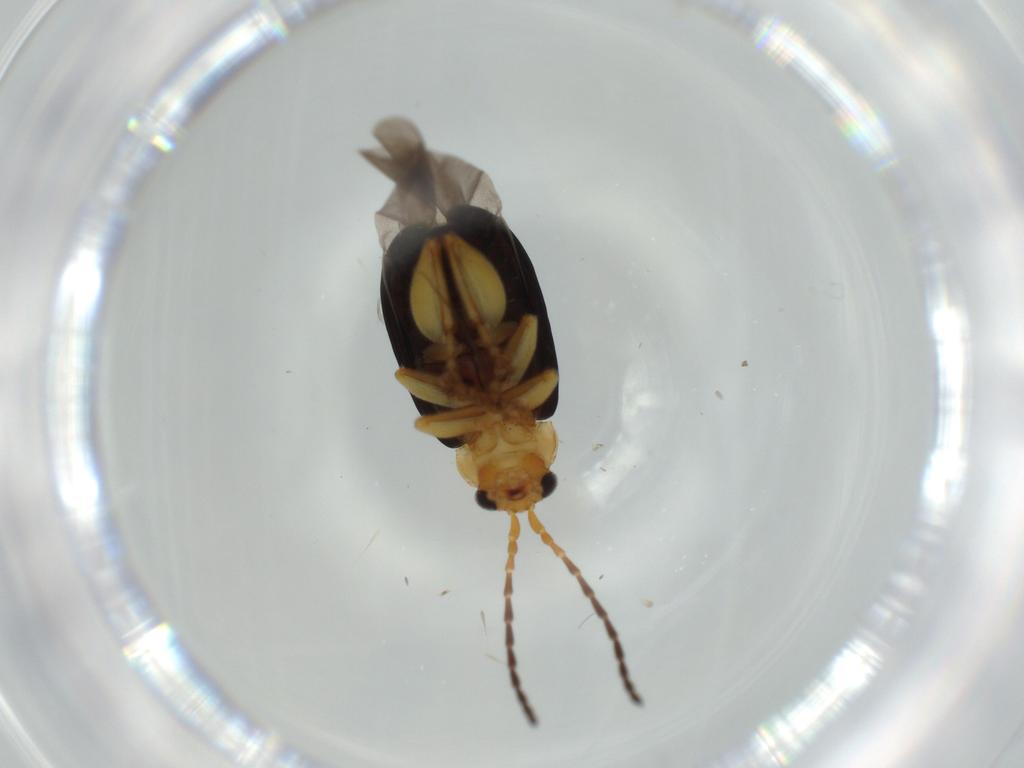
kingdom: Animalia
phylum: Arthropoda
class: Insecta
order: Coleoptera
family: Chrysomelidae
